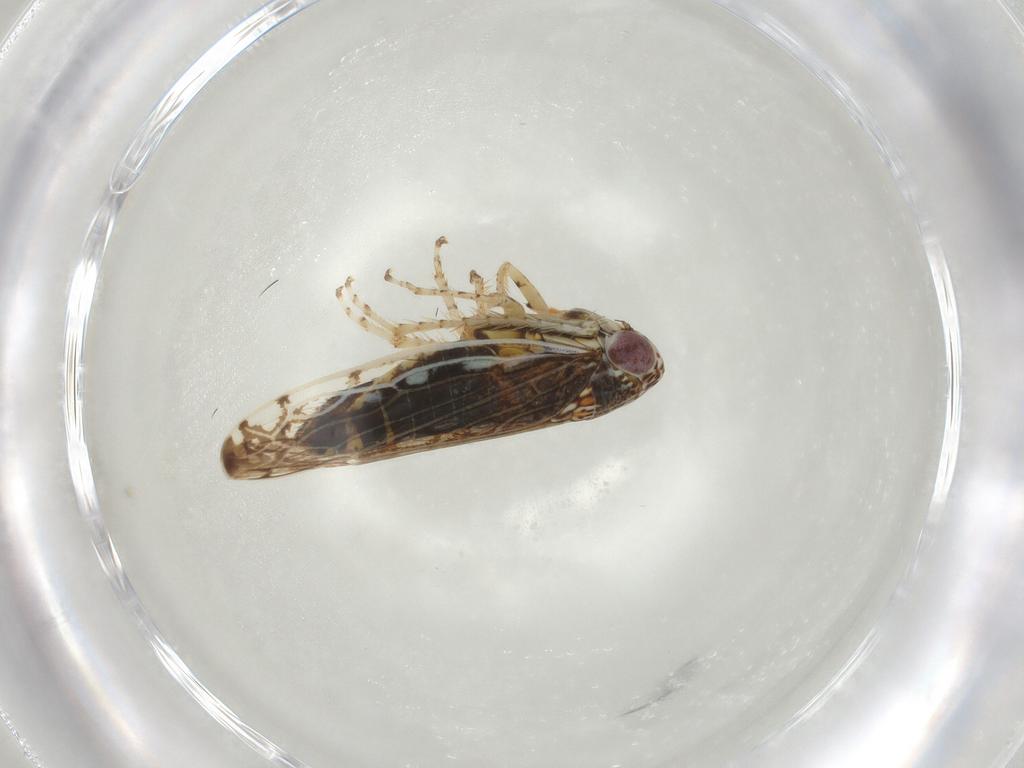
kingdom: Animalia
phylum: Arthropoda
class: Insecta
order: Hemiptera
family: Cicadellidae
